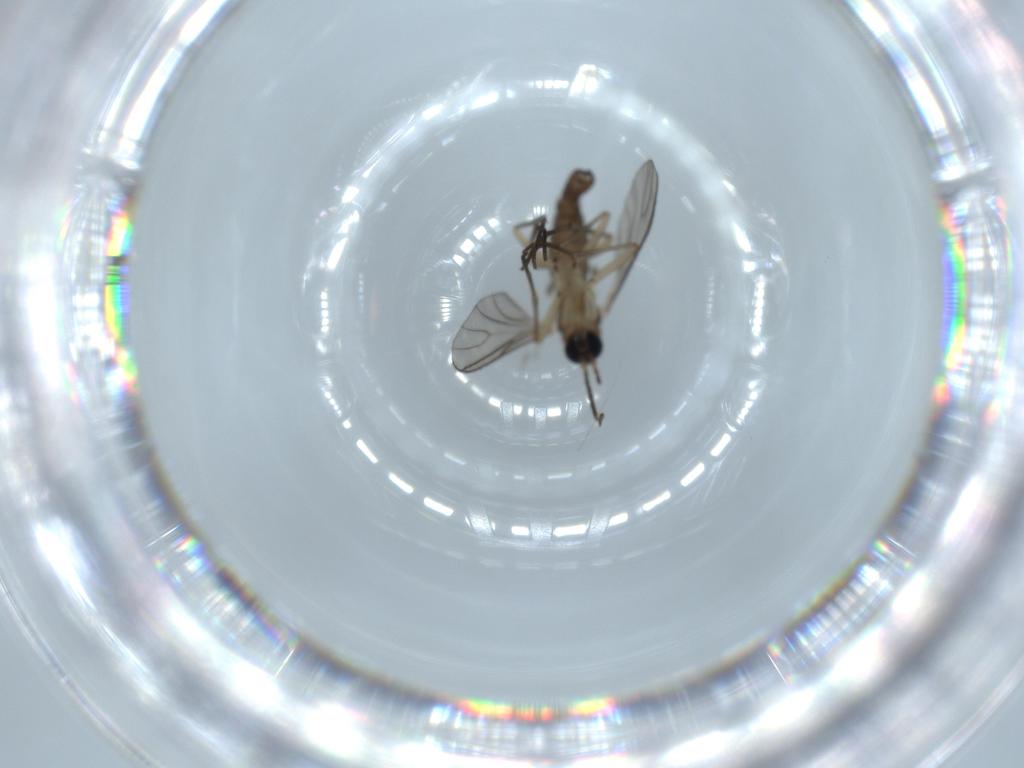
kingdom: Animalia
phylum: Arthropoda
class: Insecta
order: Diptera
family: Sciaridae
